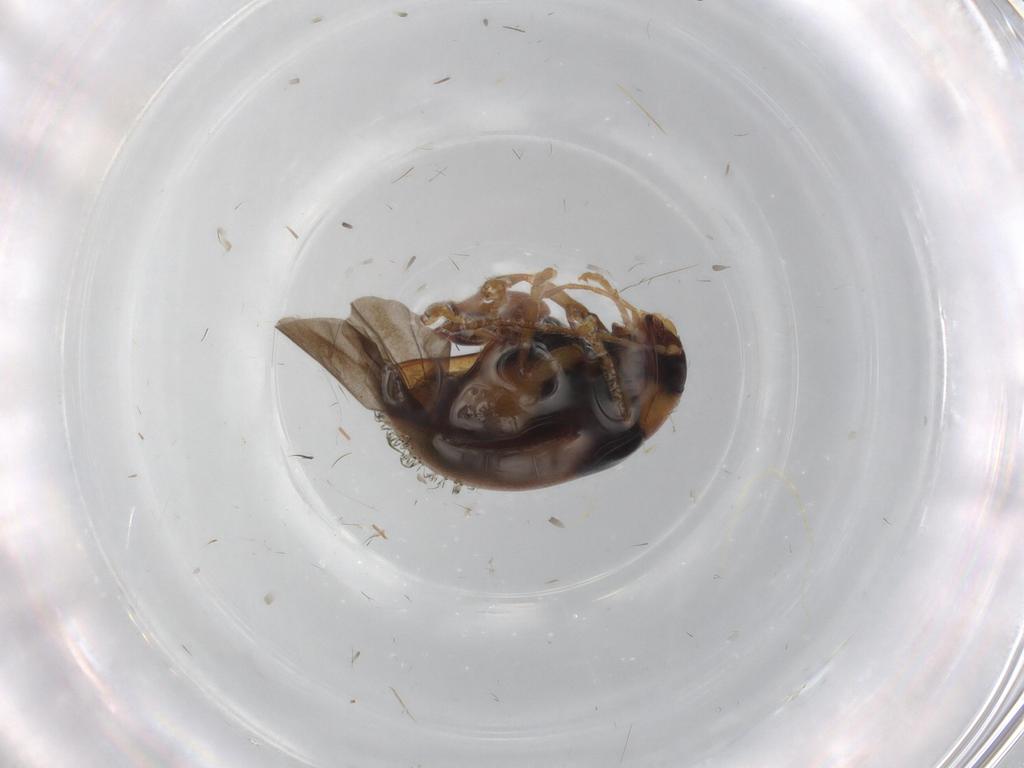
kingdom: Animalia
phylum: Arthropoda
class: Insecta
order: Coleoptera
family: Chrysomelidae
